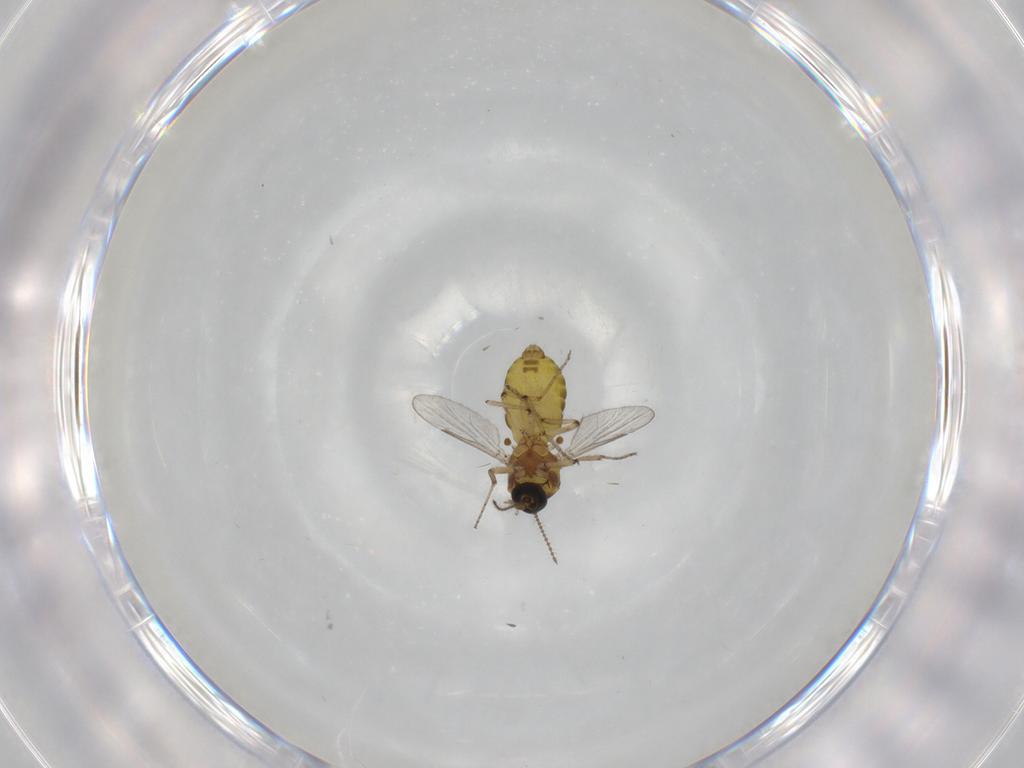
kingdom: Animalia
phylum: Arthropoda
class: Insecta
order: Diptera
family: Ceratopogonidae
